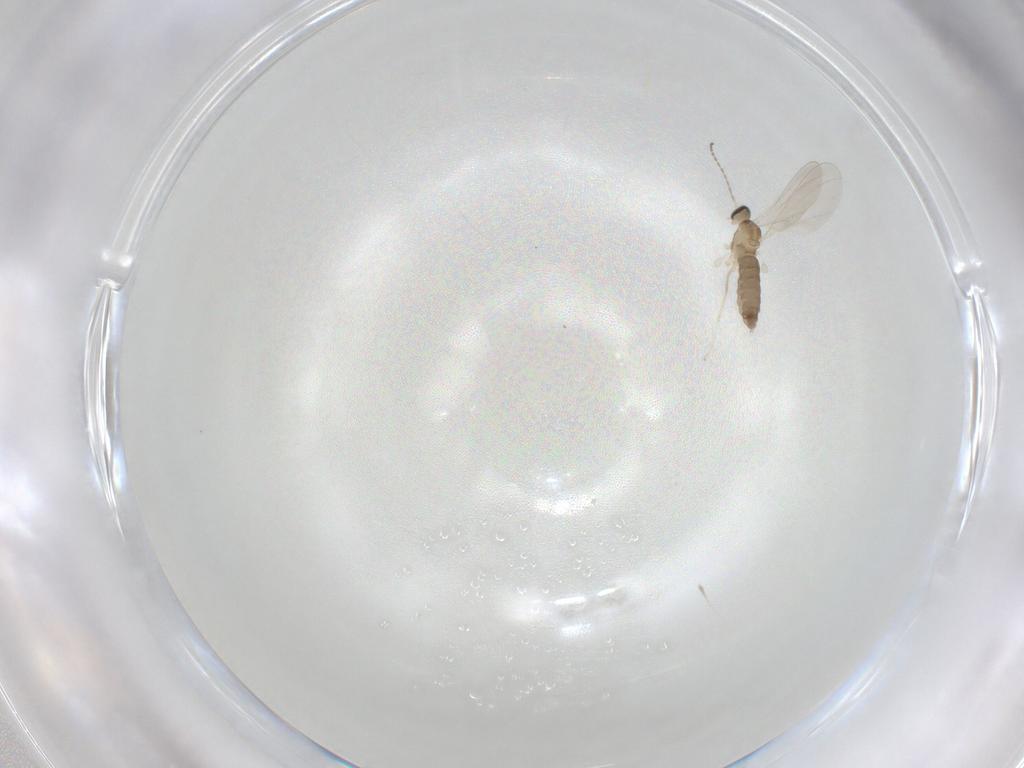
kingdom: Animalia
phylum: Arthropoda
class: Insecta
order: Diptera
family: Cecidomyiidae
